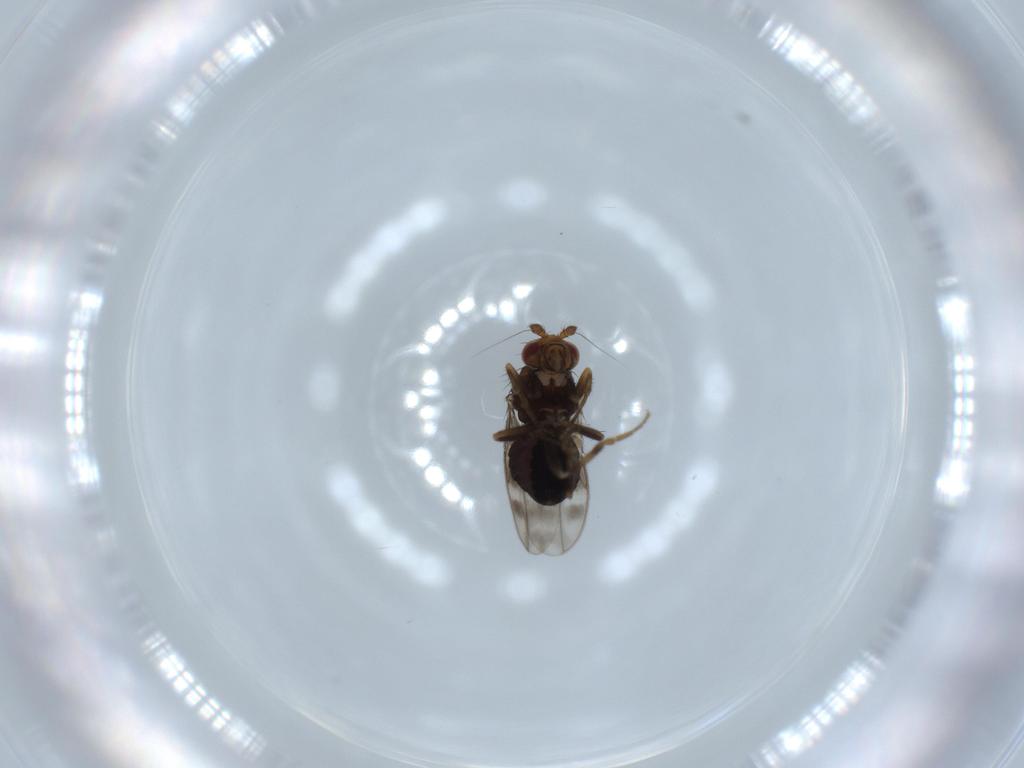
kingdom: Animalia
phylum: Arthropoda
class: Insecta
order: Diptera
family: Sphaeroceridae
